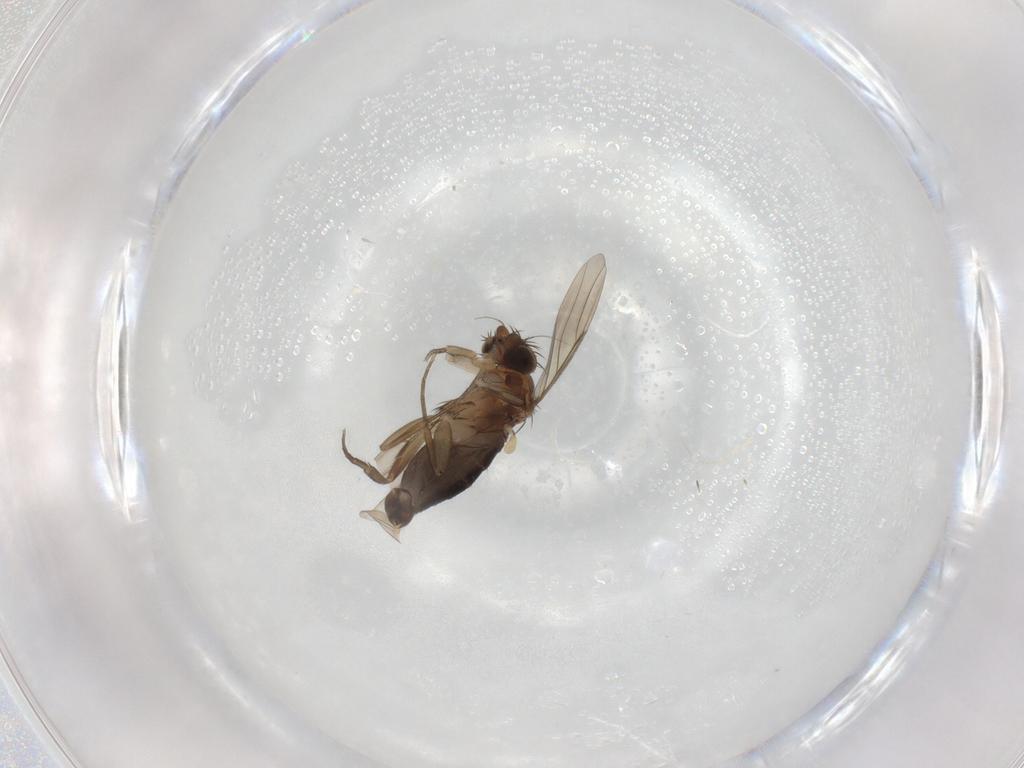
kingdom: Animalia
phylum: Arthropoda
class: Insecta
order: Diptera
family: Phoridae
